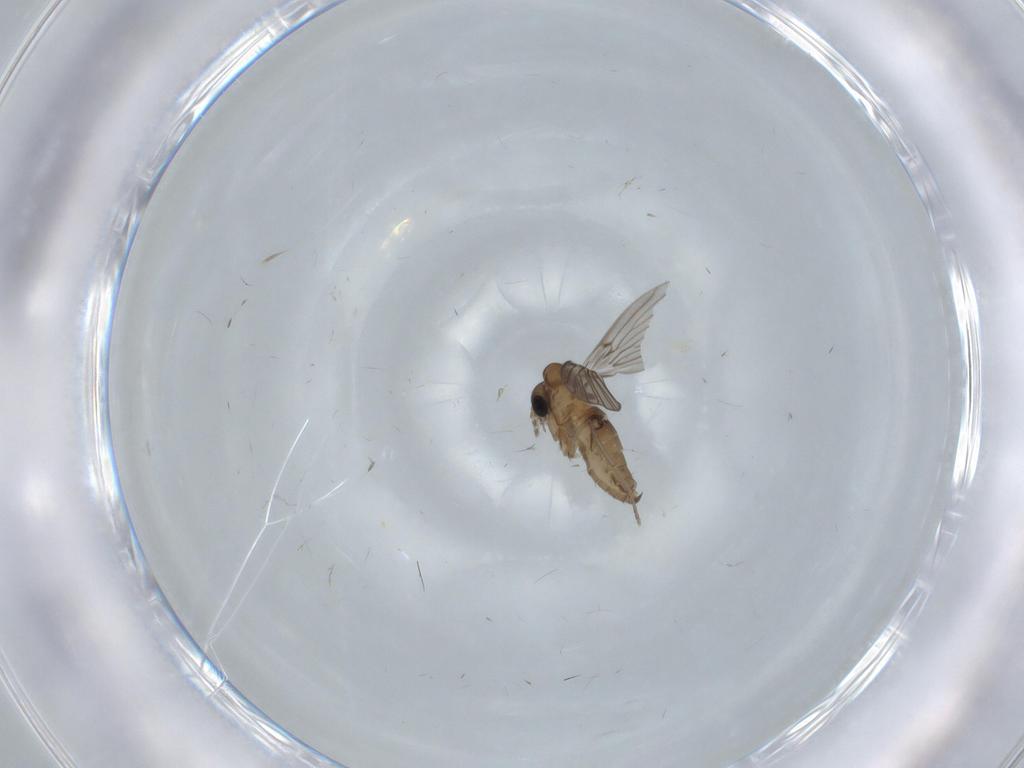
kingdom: Animalia
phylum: Arthropoda
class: Insecta
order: Diptera
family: Psychodidae
